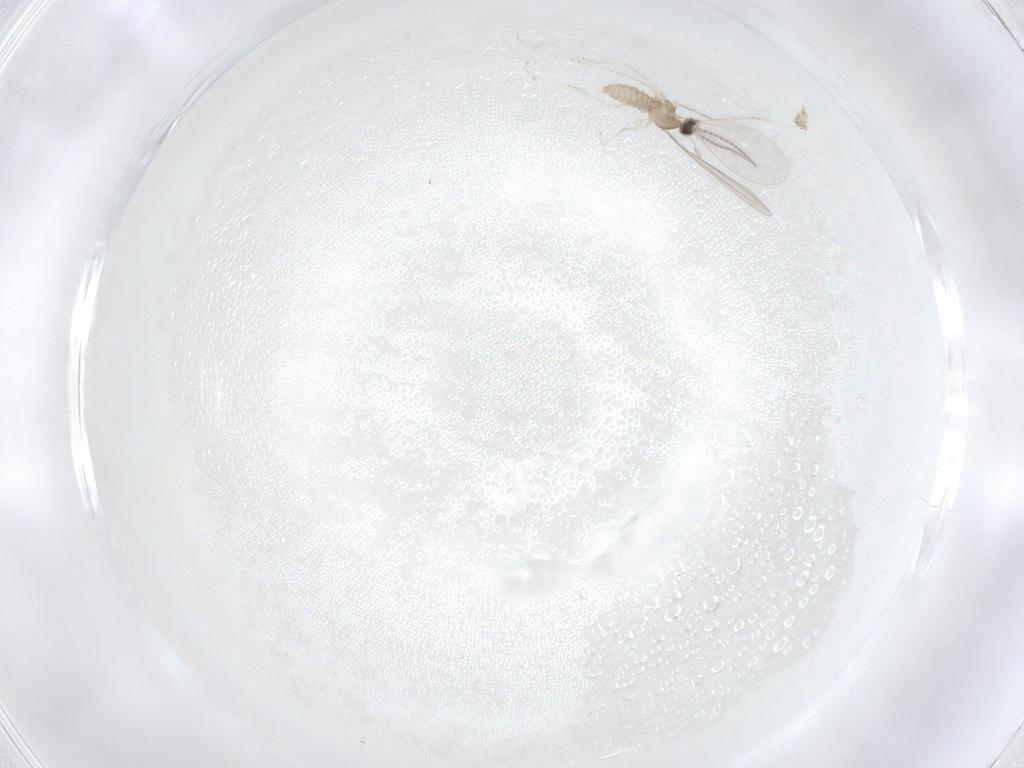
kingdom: Animalia
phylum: Arthropoda
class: Insecta
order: Diptera
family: Cecidomyiidae
